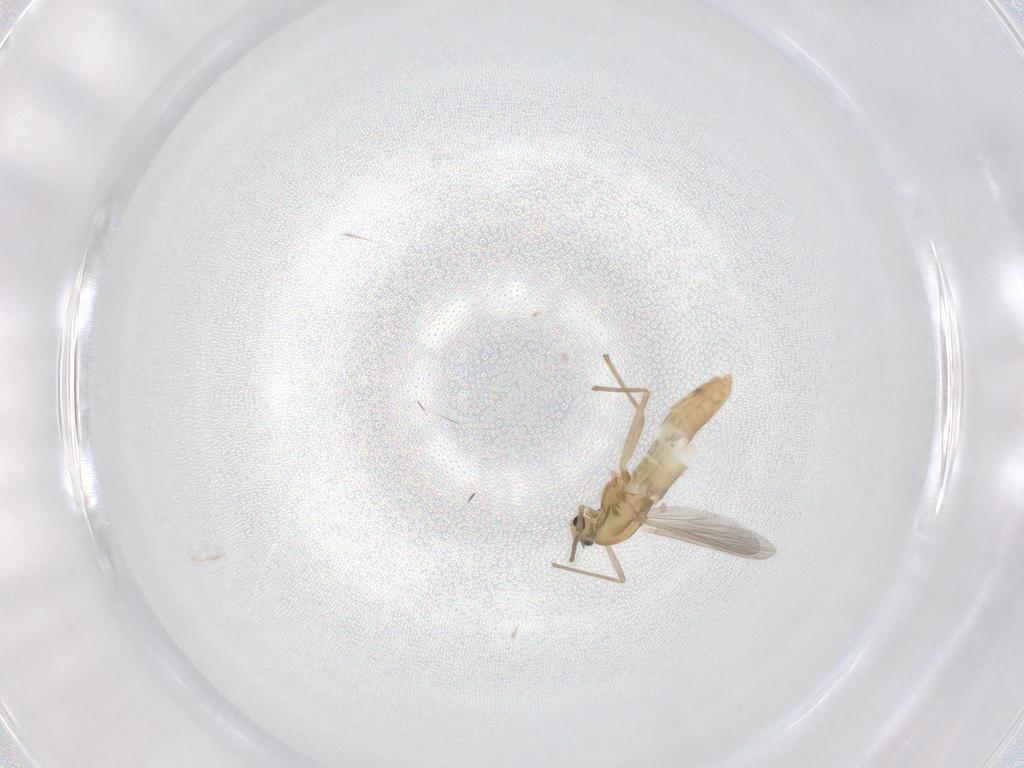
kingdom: Animalia
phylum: Arthropoda
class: Insecta
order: Diptera
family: Chironomidae
